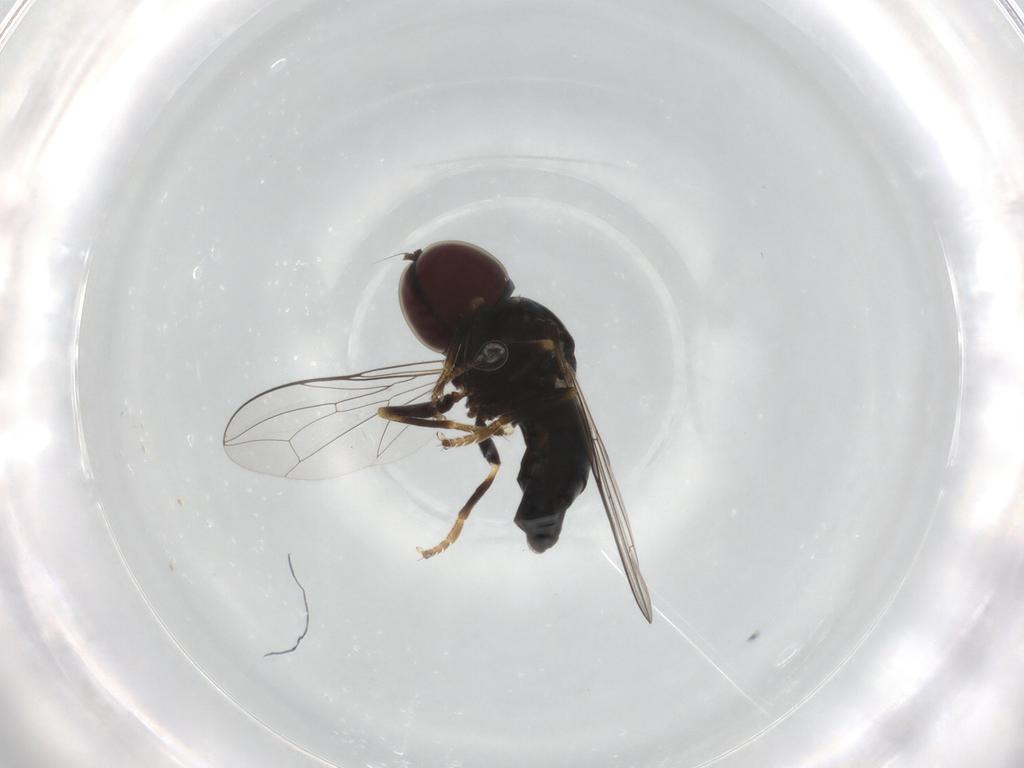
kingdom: Animalia
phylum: Arthropoda
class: Insecta
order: Diptera
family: Pipunculidae
